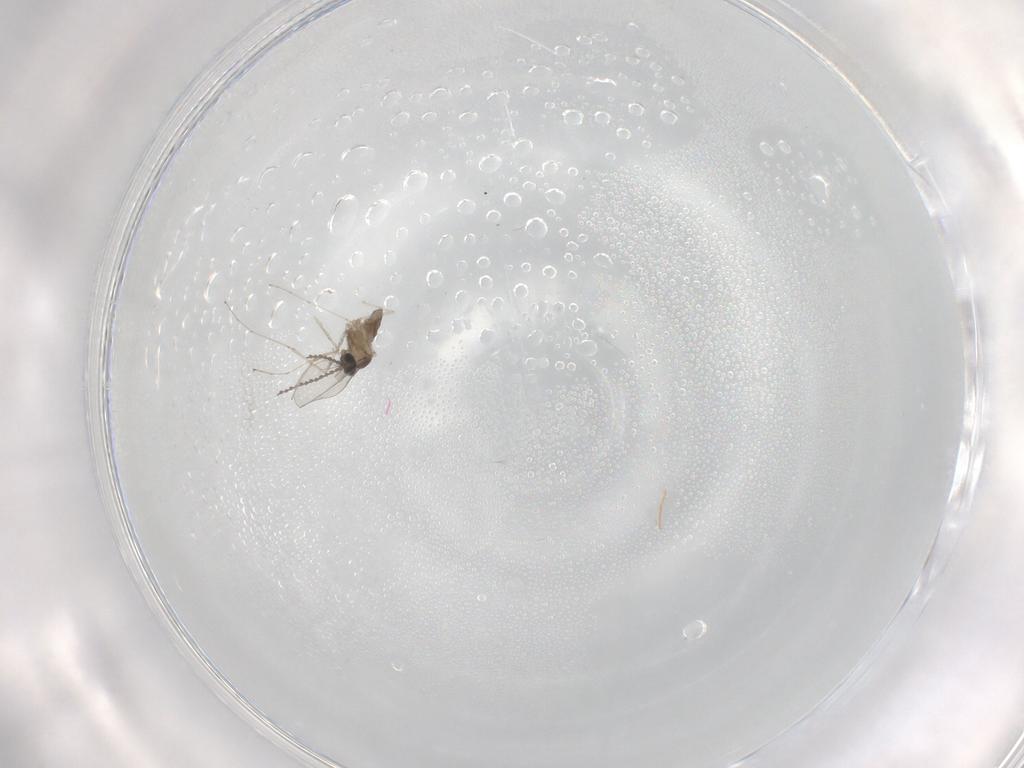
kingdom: Animalia
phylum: Arthropoda
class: Insecta
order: Diptera
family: Cecidomyiidae
